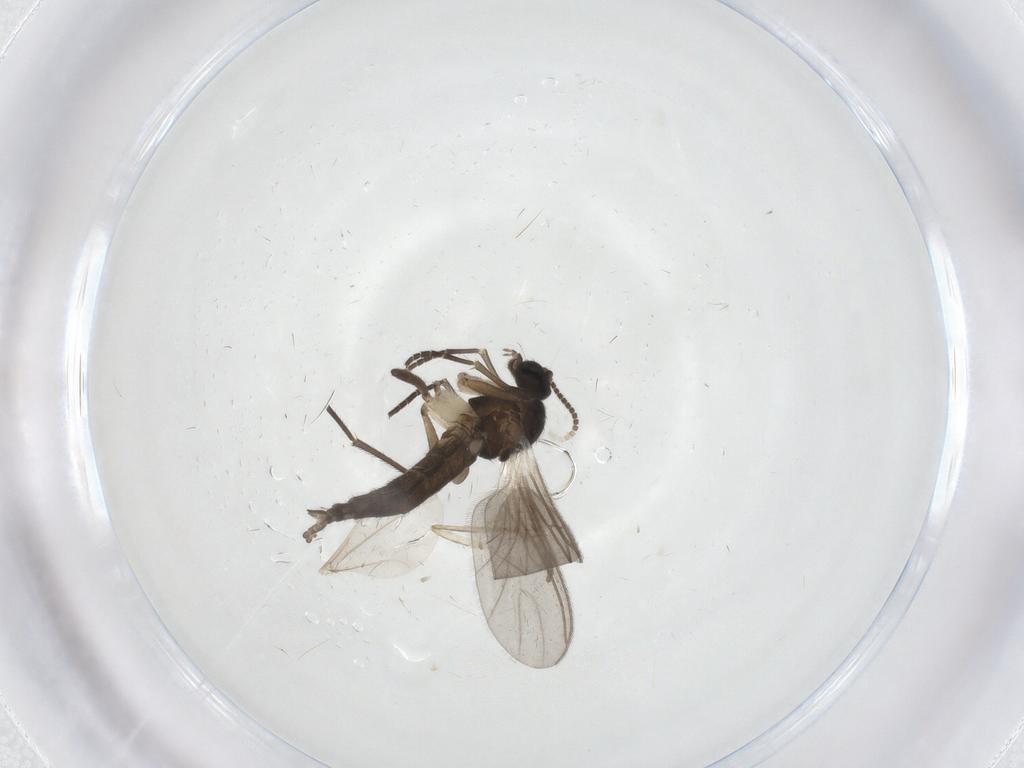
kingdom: Animalia
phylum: Arthropoda
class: Insecta
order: Diptera
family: Sciaridae
